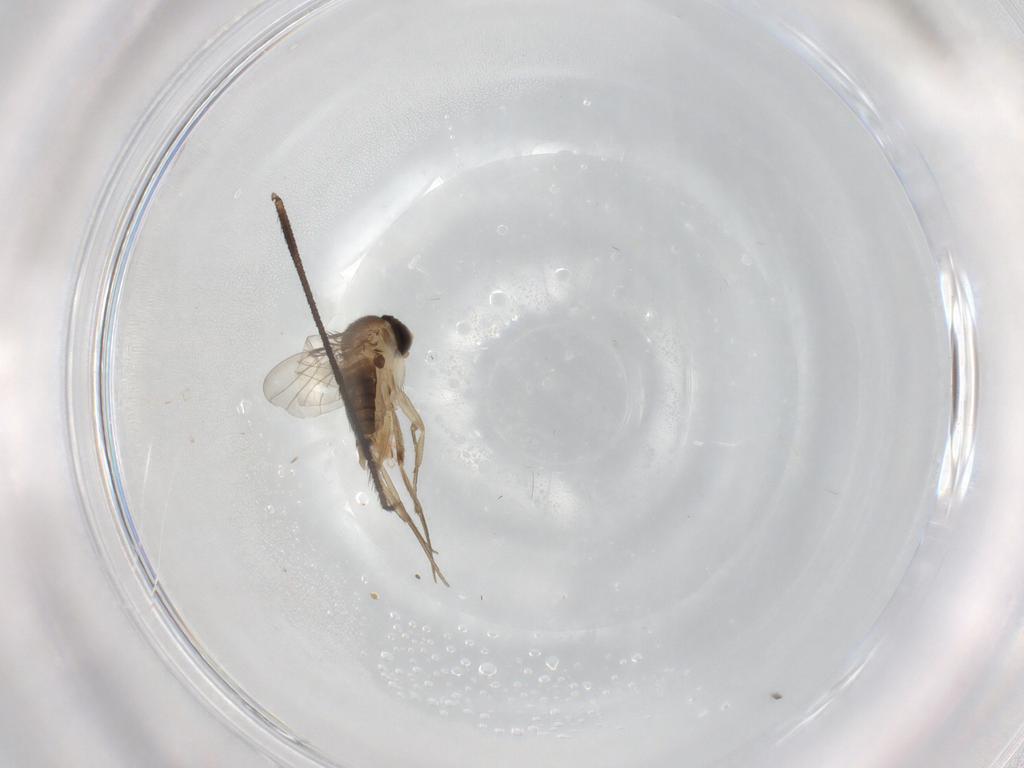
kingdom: Animalia
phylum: Arthropoda
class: Insecta
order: Diptera
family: Phoridae
